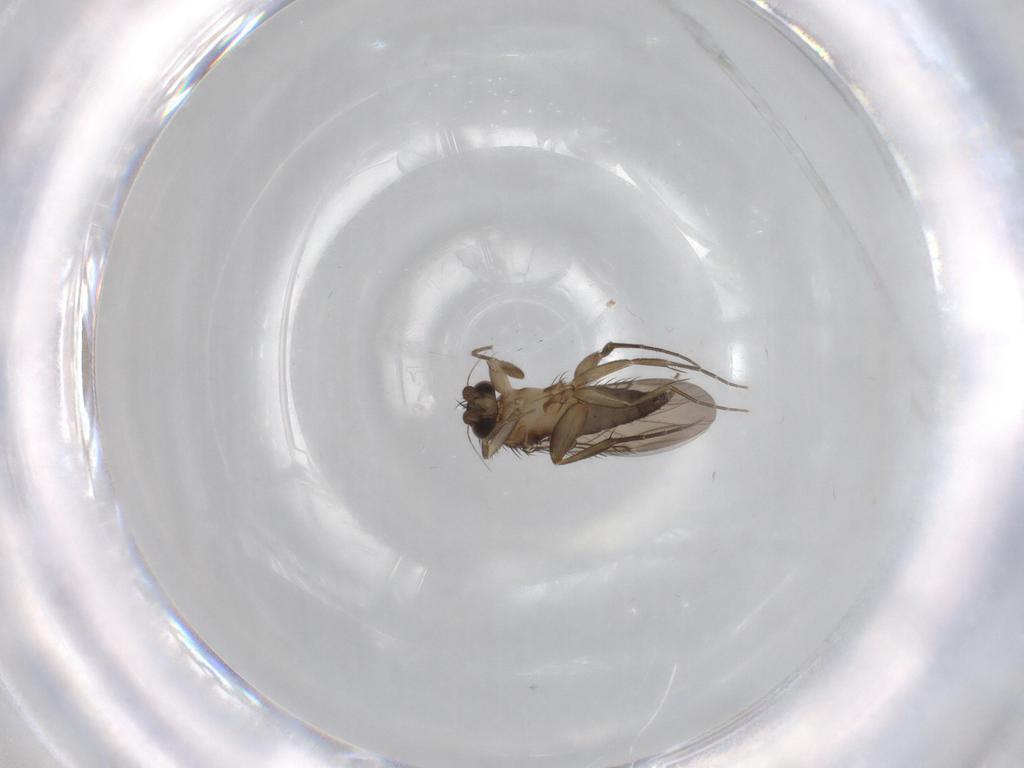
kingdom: Animalia
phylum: Arthropoda
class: Insecta
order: Diptera
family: Phoridae
